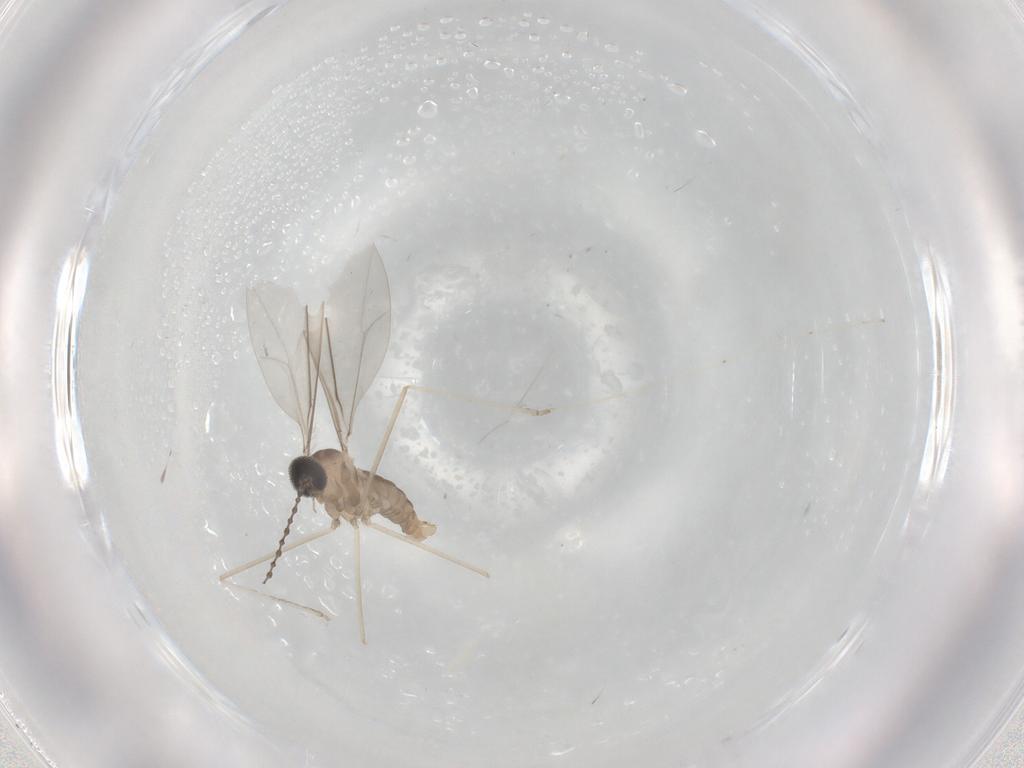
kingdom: Animalia
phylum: Arthropoda
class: Insecta
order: Diptera
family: Cecidomyiidae
